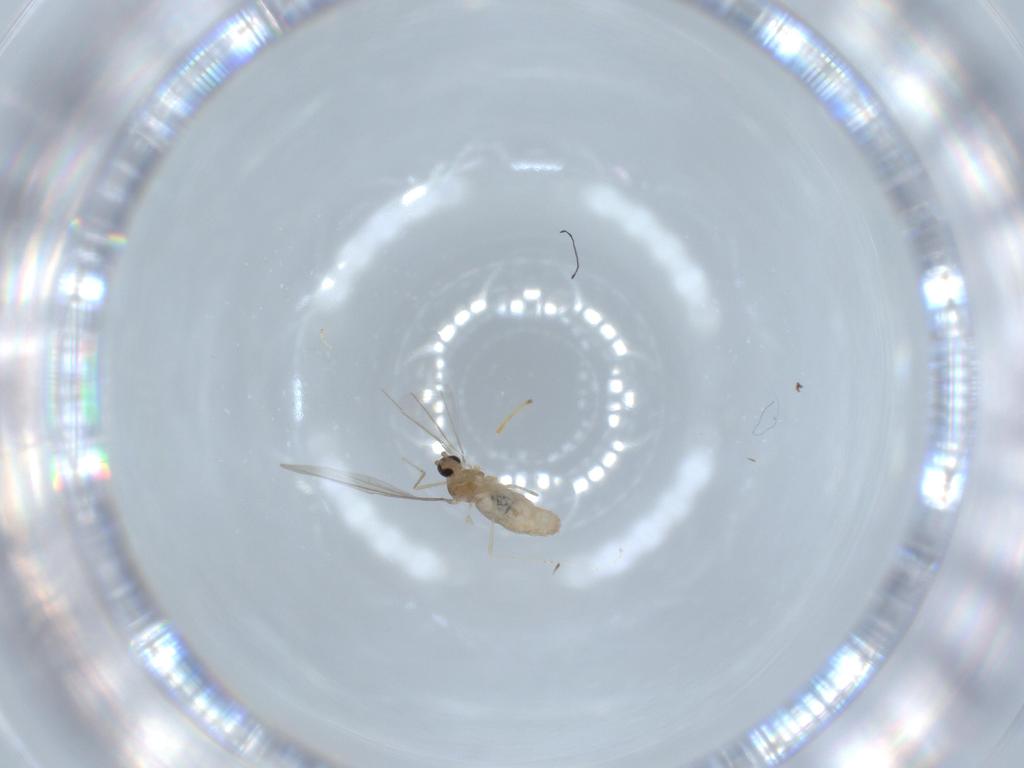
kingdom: Animalia
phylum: Arthropoda
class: Insecta
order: Diptera
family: Cecidomyiidae
